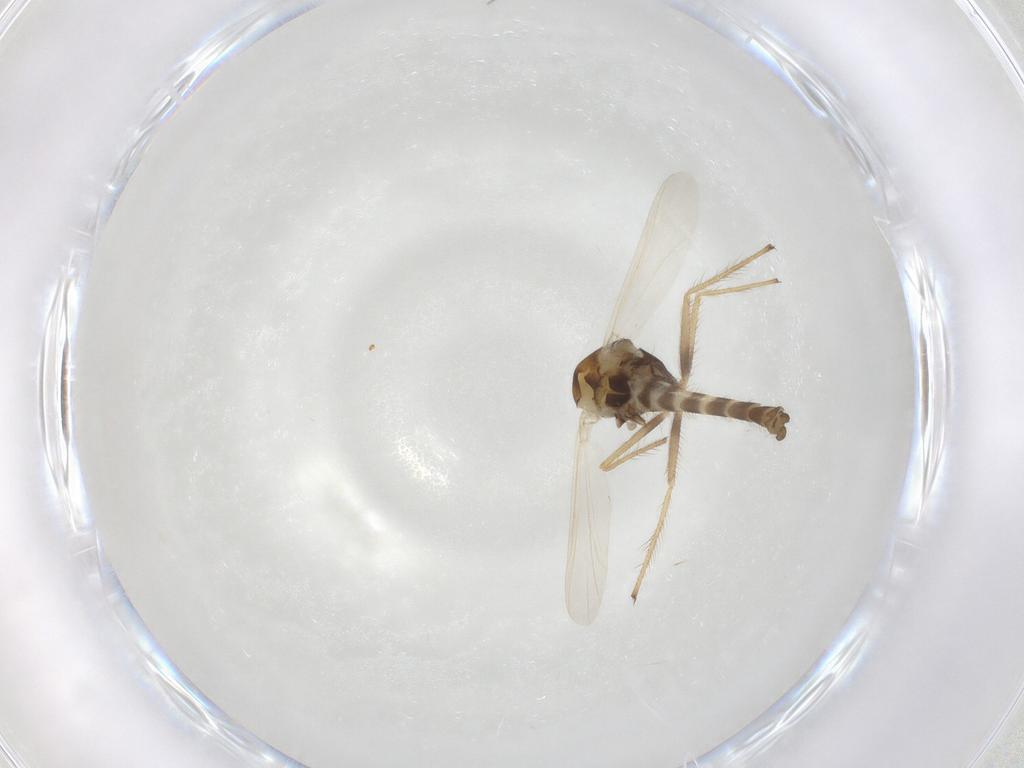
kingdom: Animalia
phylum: Arthropoda
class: Insecta
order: Diptera
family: Chironomidae
